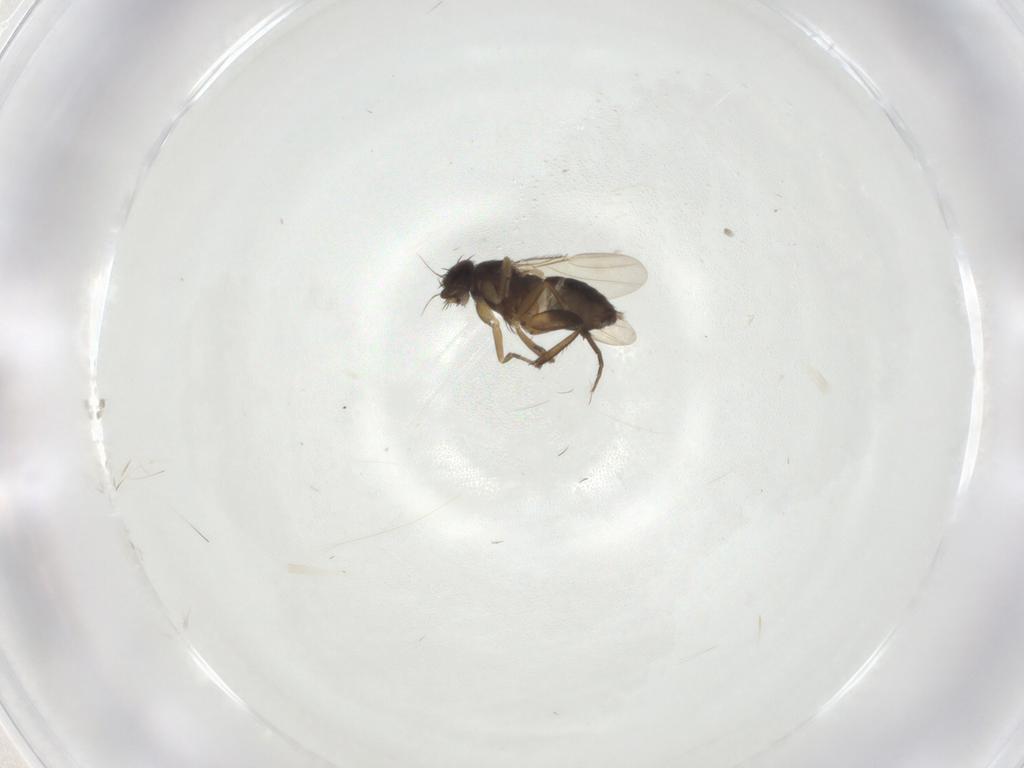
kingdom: Animalia
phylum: Arthropoda
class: Insecta
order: Diptera
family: Phoridae
